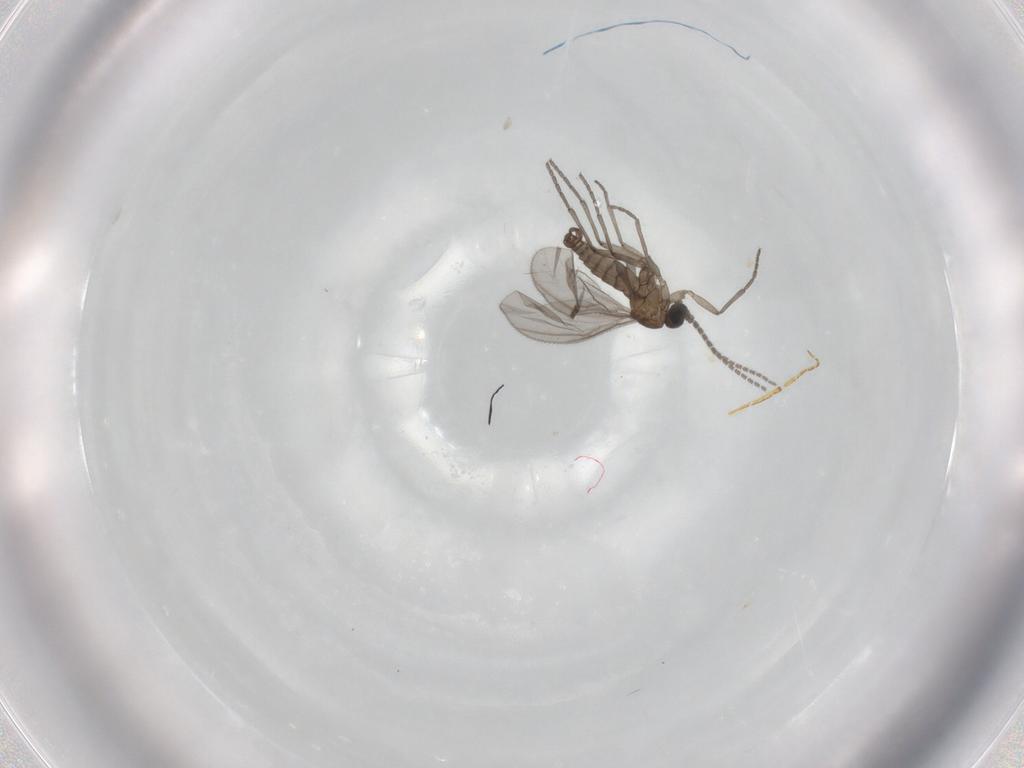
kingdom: Animalia
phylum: Arthropoda
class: Insecta
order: Diptera
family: Sciaridae
